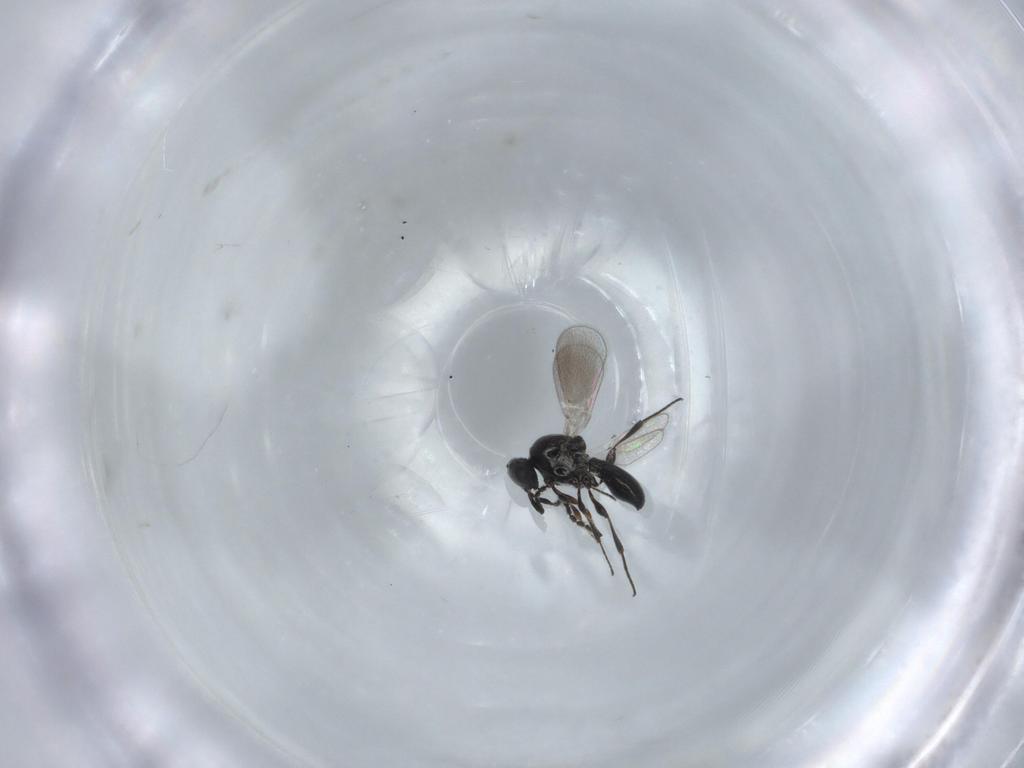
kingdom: Animalia
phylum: Arthropoda
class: Insecta
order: Hymenoptera
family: Platygastridae
